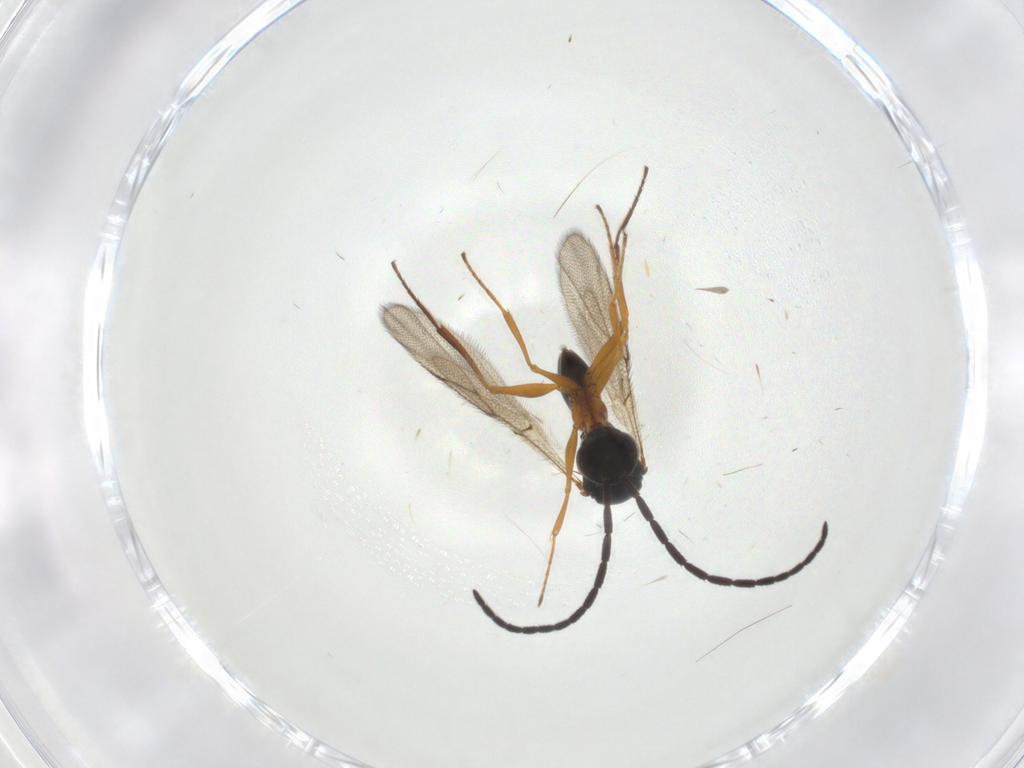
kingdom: Animalia
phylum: Arthropoda
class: Insecta
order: Hymenoptera
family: Figitidae
